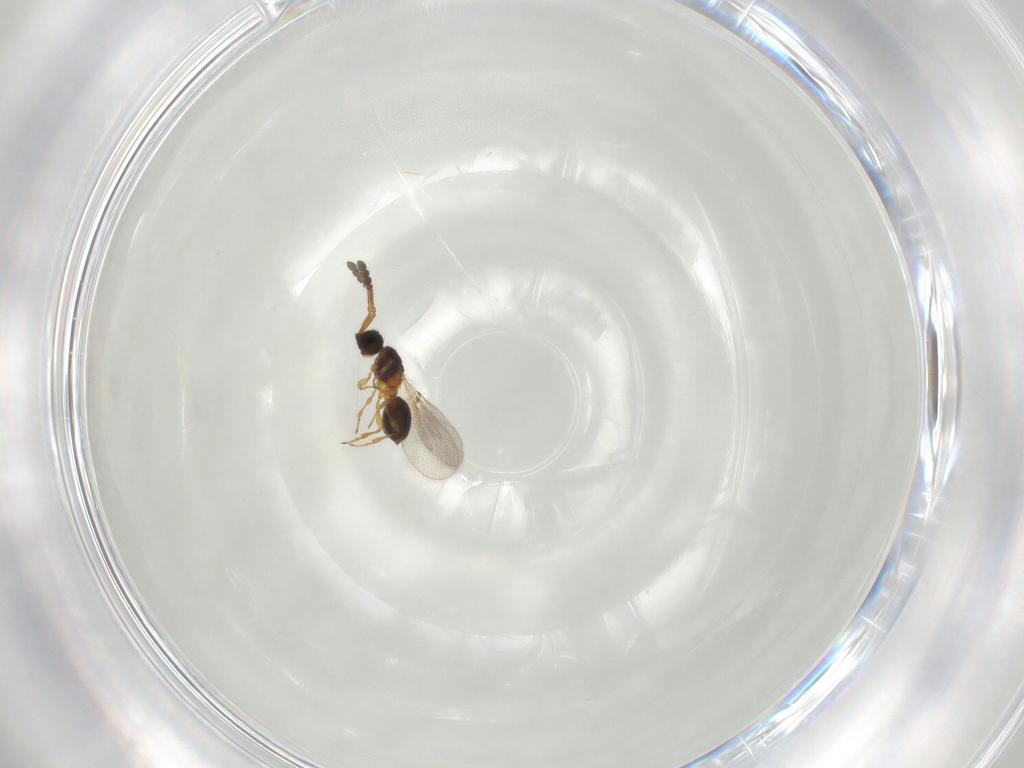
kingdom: Animalia
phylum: Arthropoda
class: Insecta
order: Hymenoptera
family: Diapriidae
